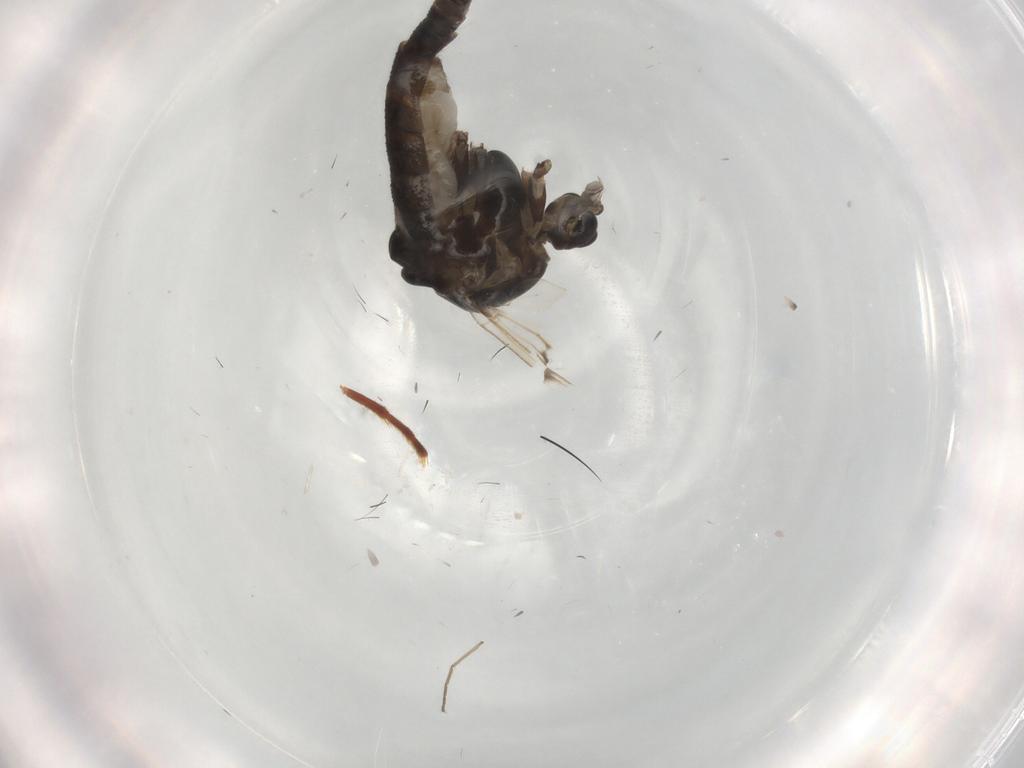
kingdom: Animalia
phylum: Arthropoda
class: Insecta
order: Diptera
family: Chironomidae
